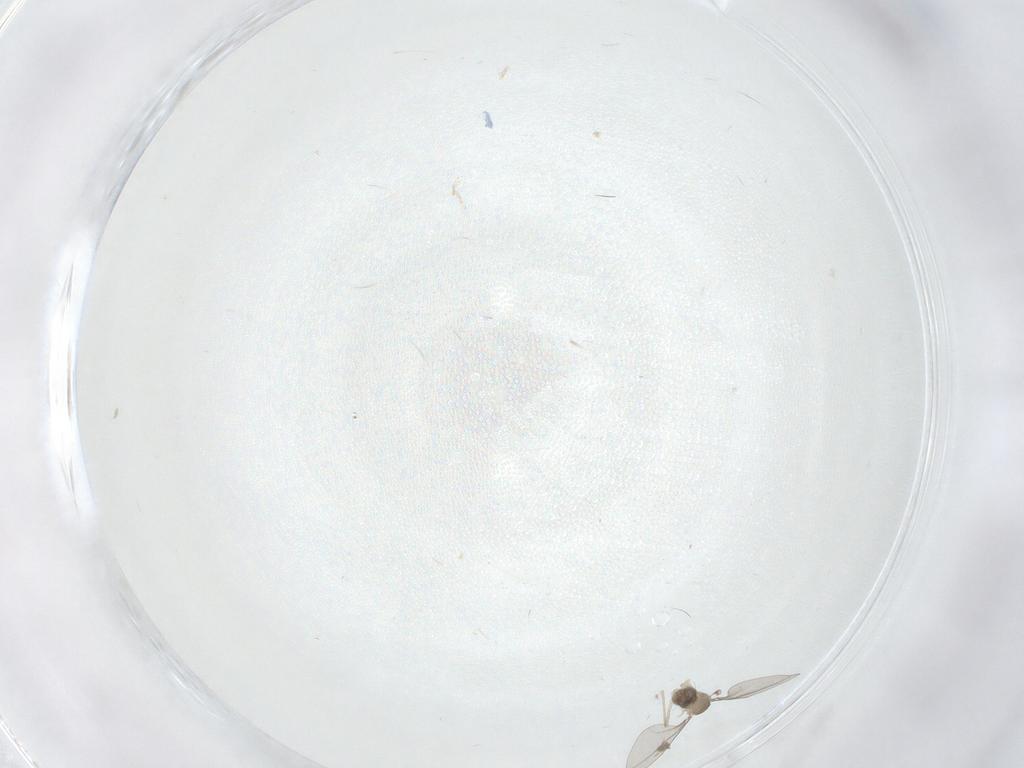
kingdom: Animalia
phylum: Arthropoda
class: Insecta
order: Diptera
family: Cecidomyiidae
